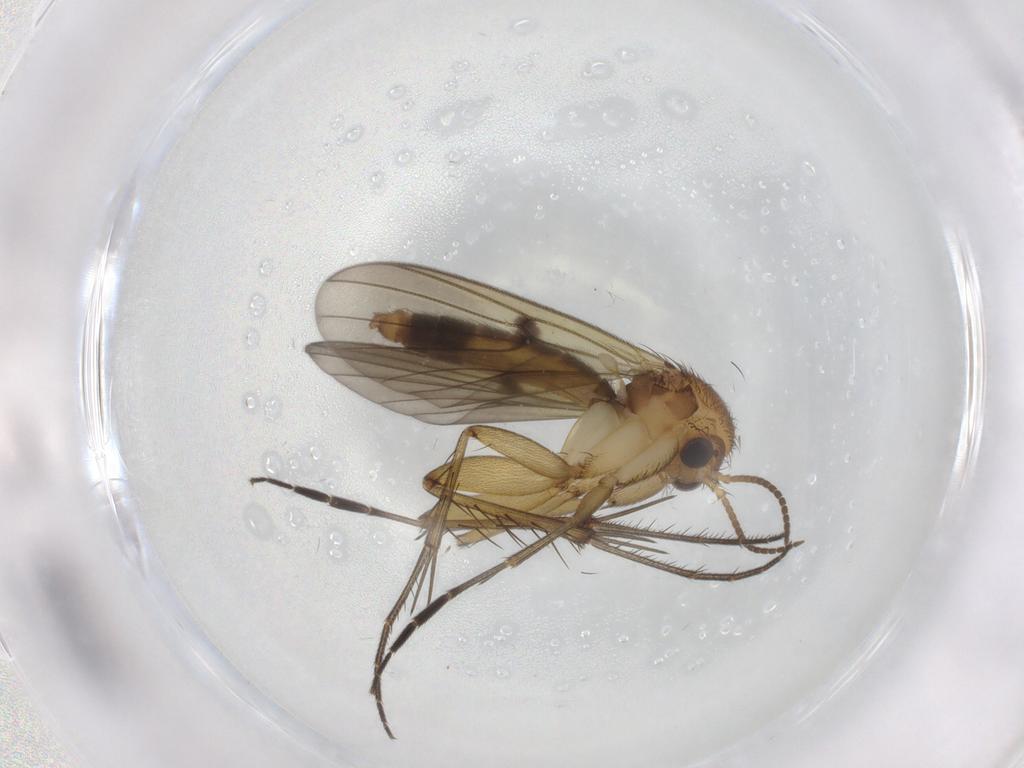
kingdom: Animalia
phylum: Arthropoda
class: Insecta
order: Diptera
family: Mycetophilidae
